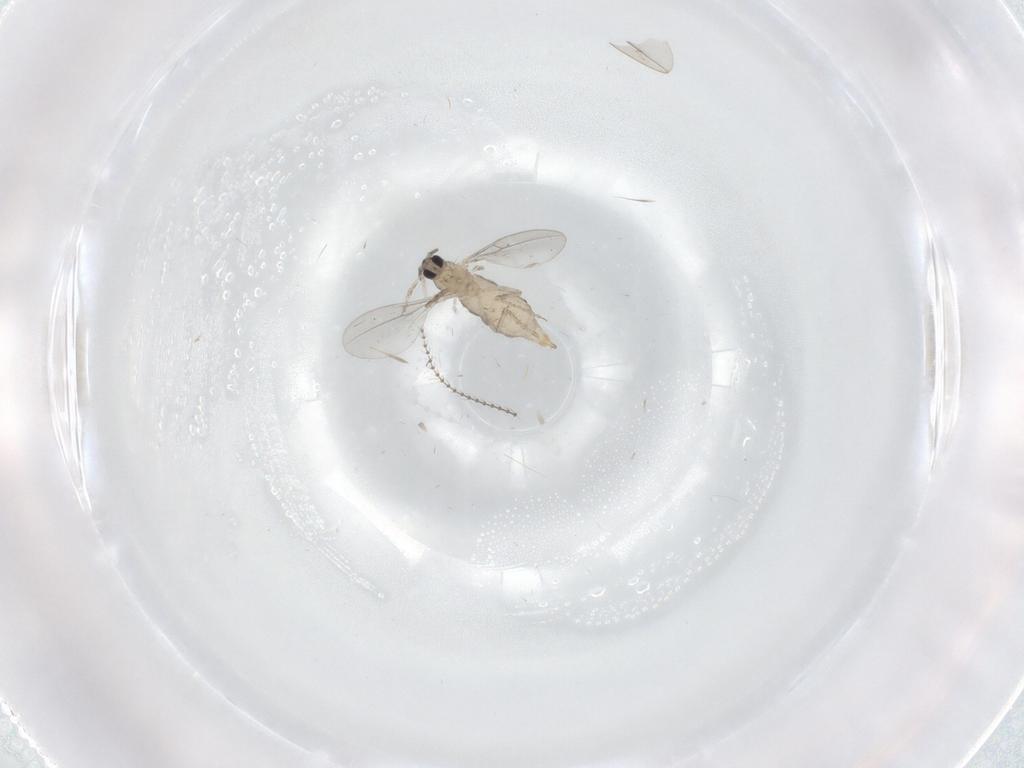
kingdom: Animalia
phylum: Arthropoda
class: Insecta
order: Diptera
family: Cecidomyiidae
